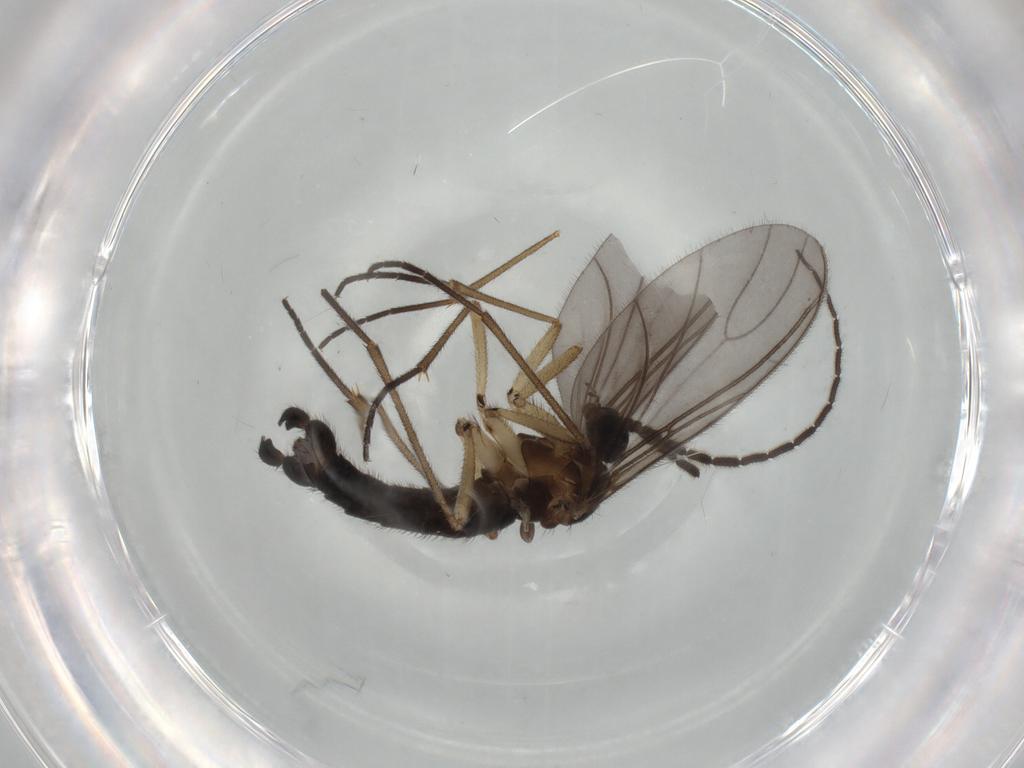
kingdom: Animalia
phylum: Arthropoda
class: Insecta
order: Diptera
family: Sciaridae
